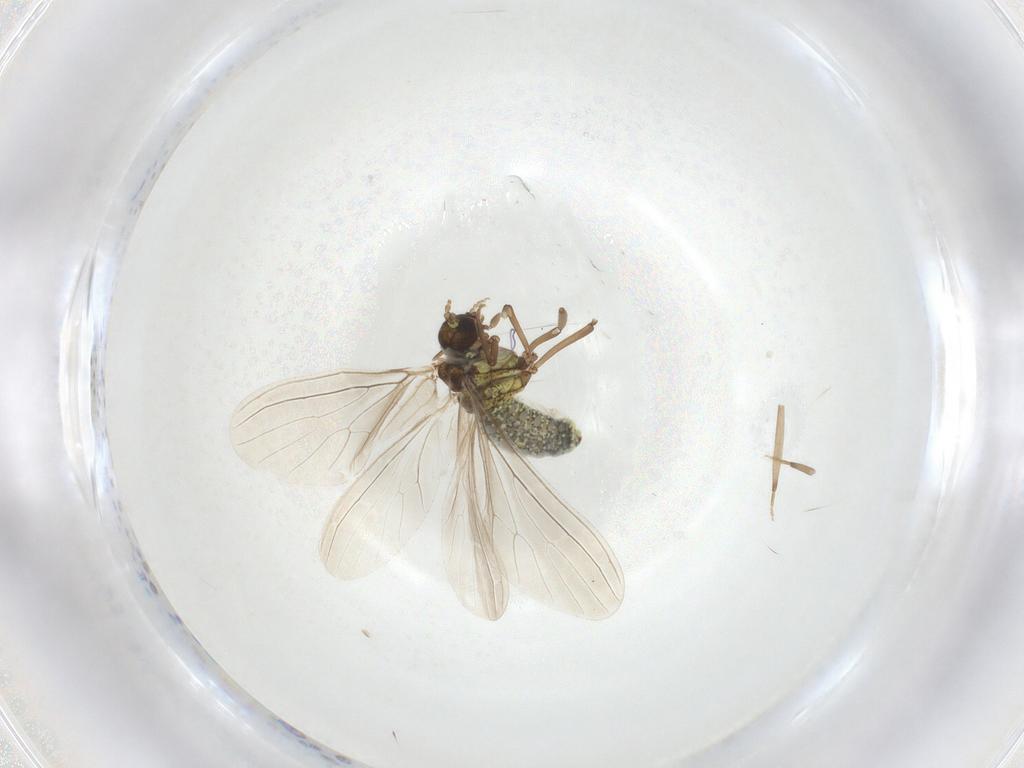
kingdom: Animalia
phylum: Arthropoda
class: Insecta
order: Neuroptera
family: Coniopterygidae
